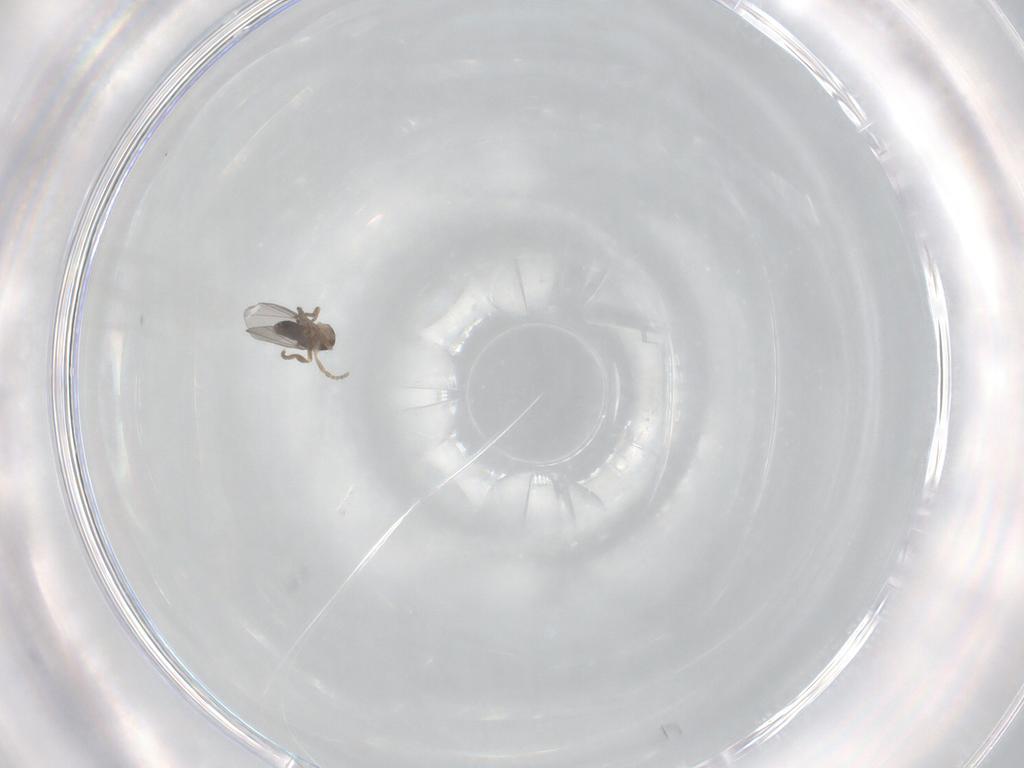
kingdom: Animalia
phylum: Arthropoda
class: Insecta
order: Diptera
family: Phoridae
